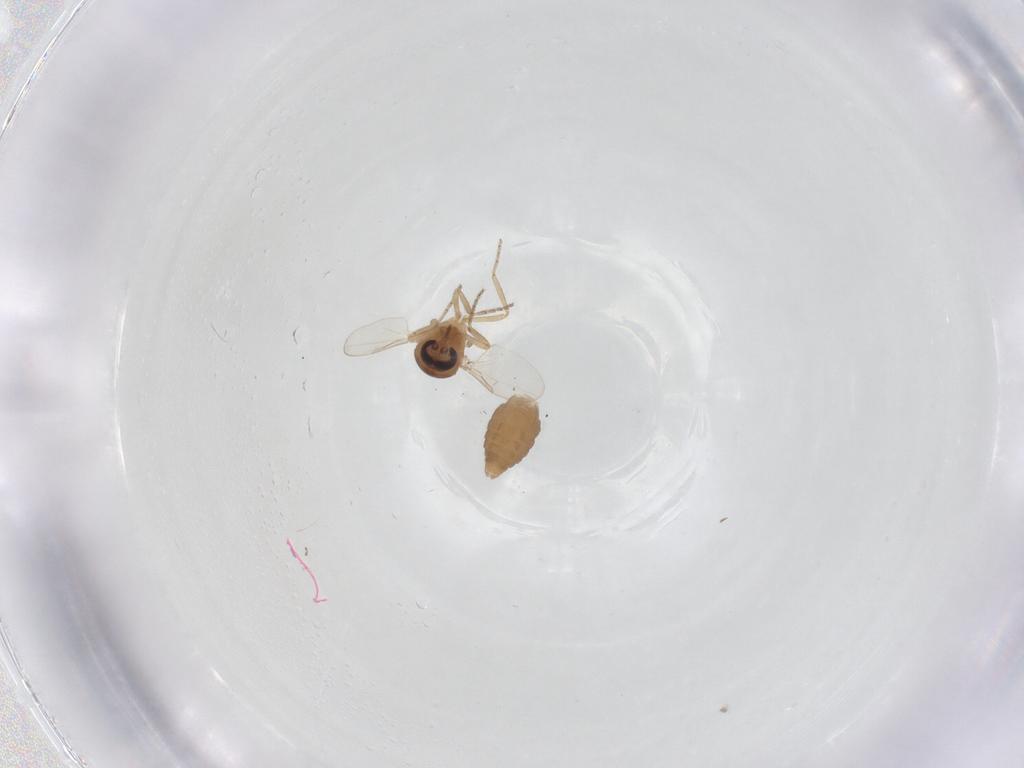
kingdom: Animalia
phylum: Arthropoda
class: Insecta
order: Diptera
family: Ceratopogonidae
